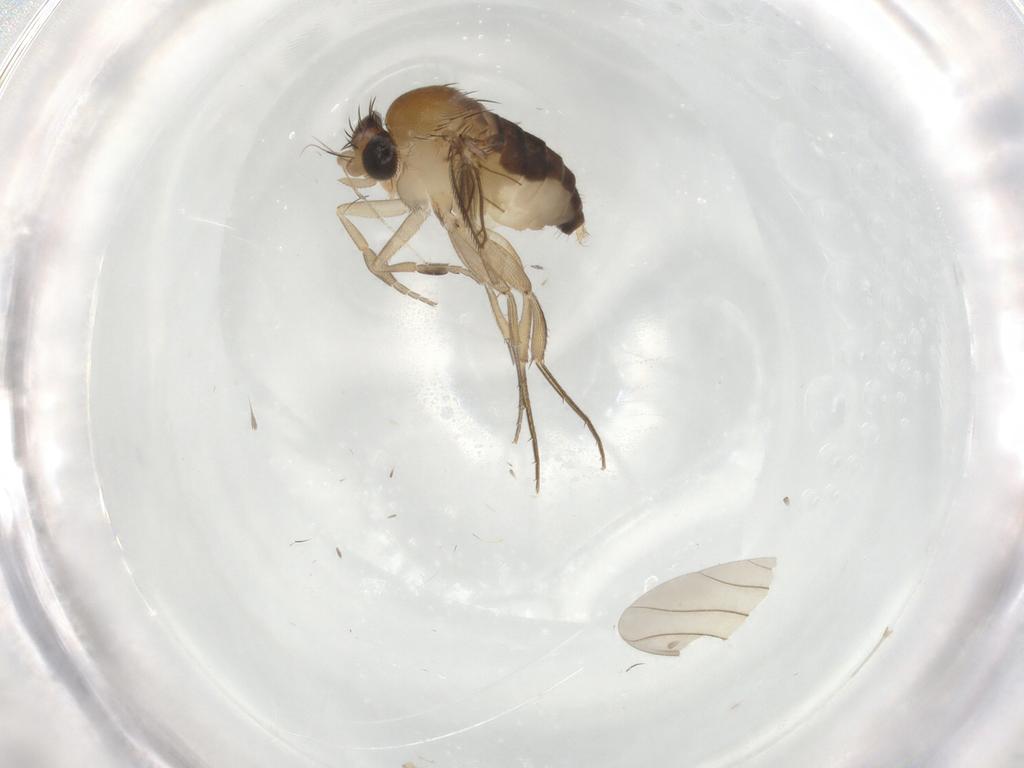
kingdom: Animalia
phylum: Arthropoda
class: Insecta
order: Diptera
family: Phoridae
